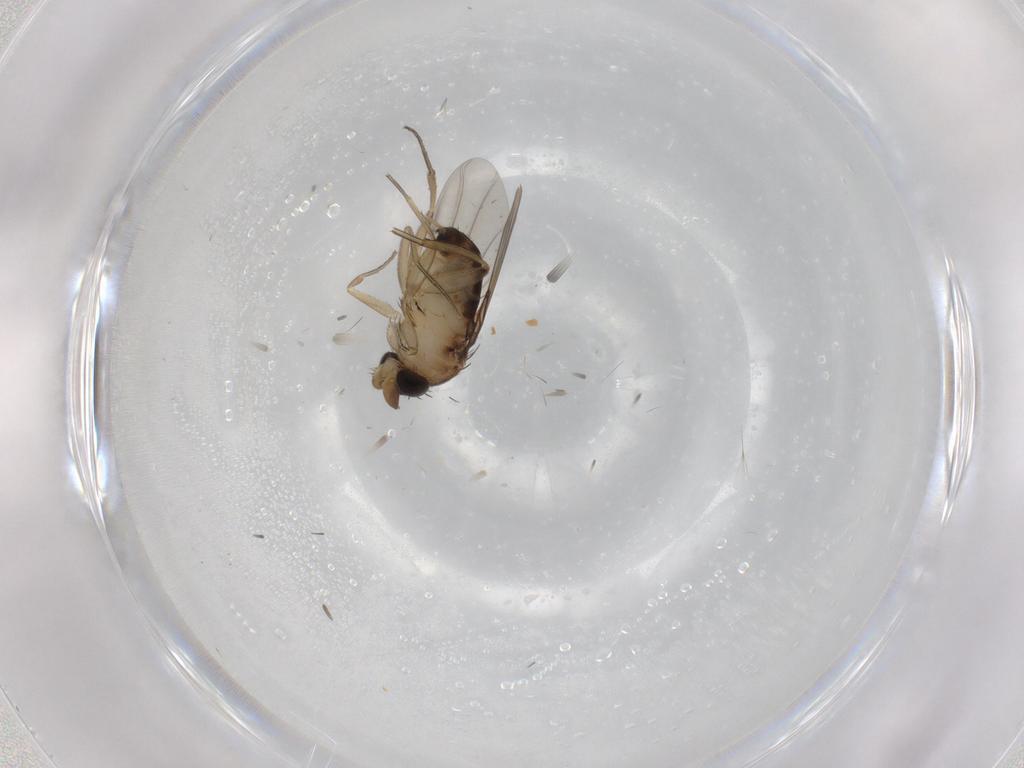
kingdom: Animalia
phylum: Arthropoda
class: Insecta
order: Diptera
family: Phoridae
